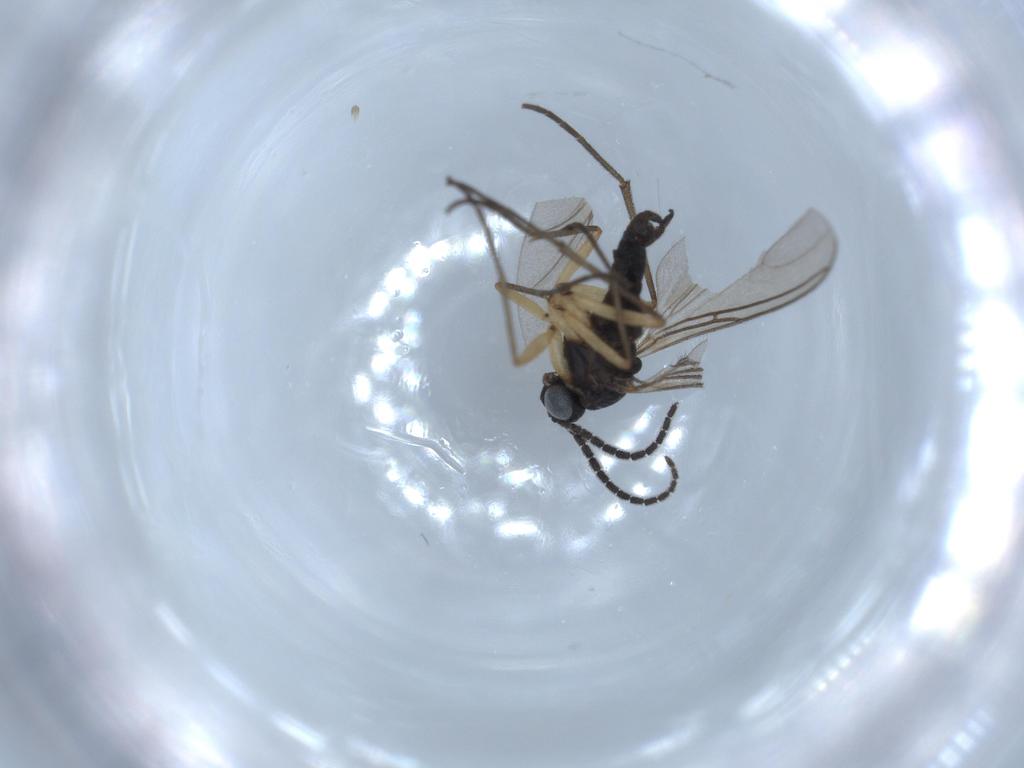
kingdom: Animalia
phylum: Arthropoda
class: Insecta
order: Diptera
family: Sciaridae
